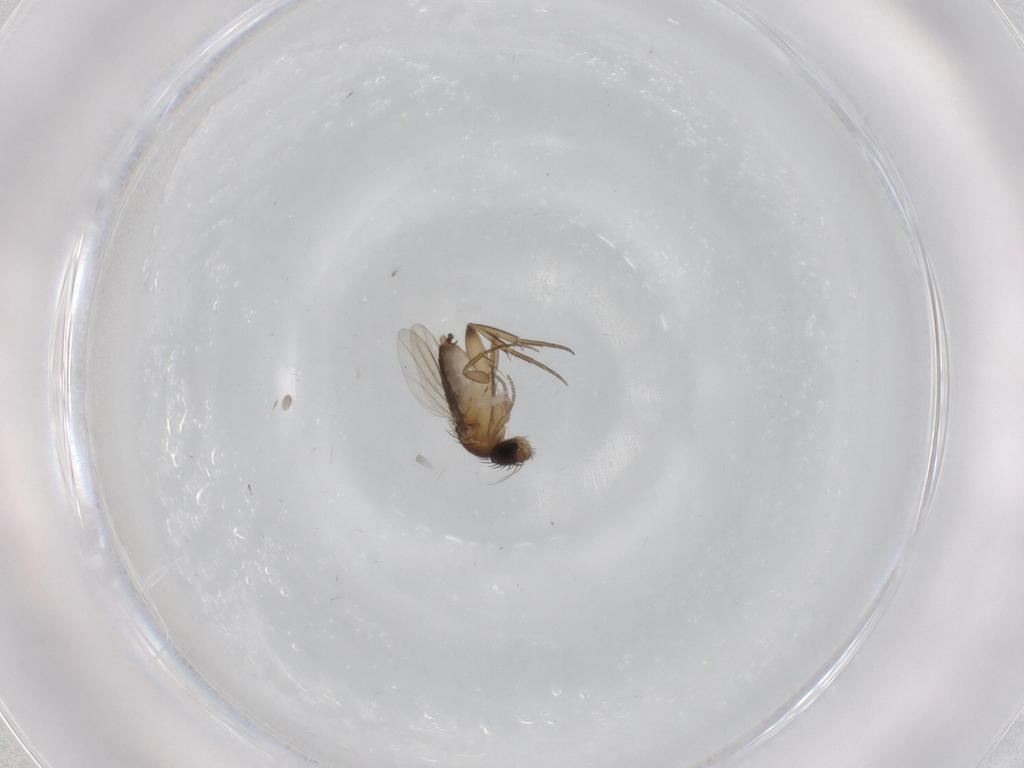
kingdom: Animalia
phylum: Arthropoda
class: Insecta
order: Diptera
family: Phoridae
